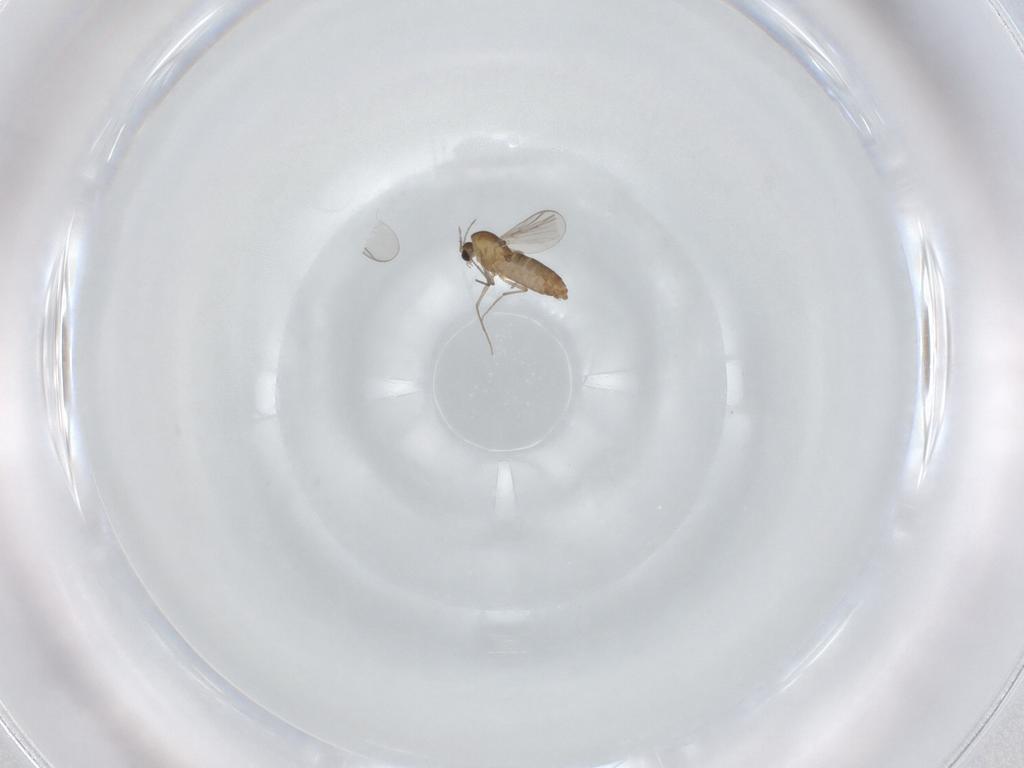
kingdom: Animalia
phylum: Arthropoda
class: Insecta
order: Diptera
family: Chironomidae
